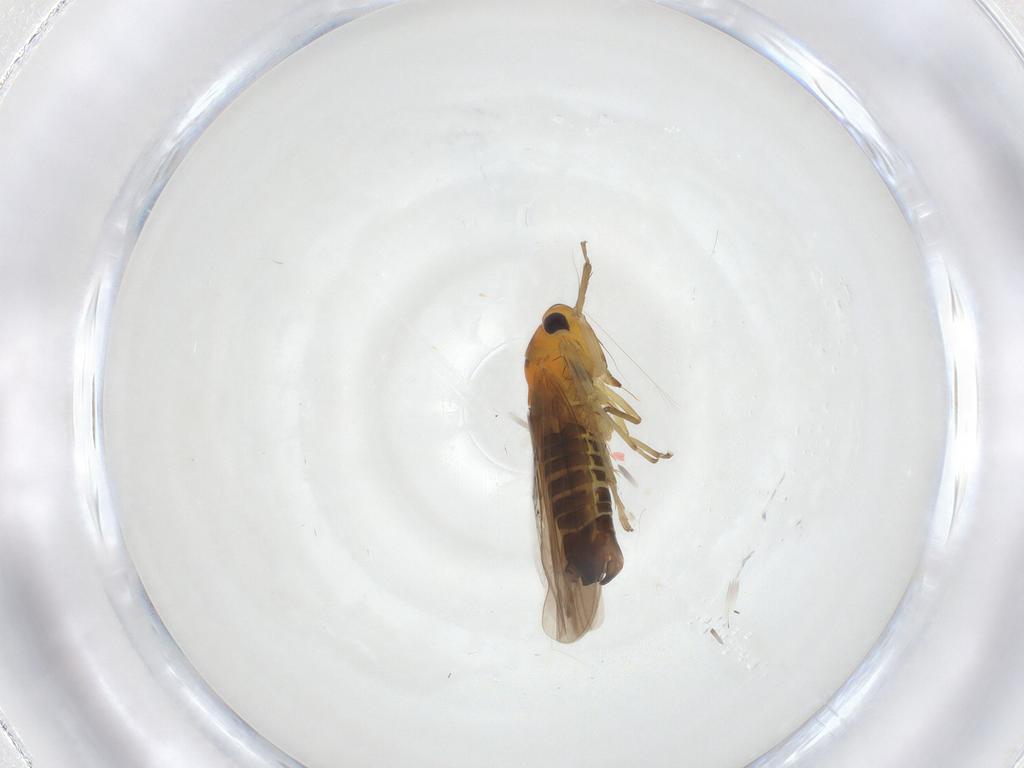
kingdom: Animalia
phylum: Arthropoda
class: Insecta
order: Hemiptera
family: Cicadellidae
